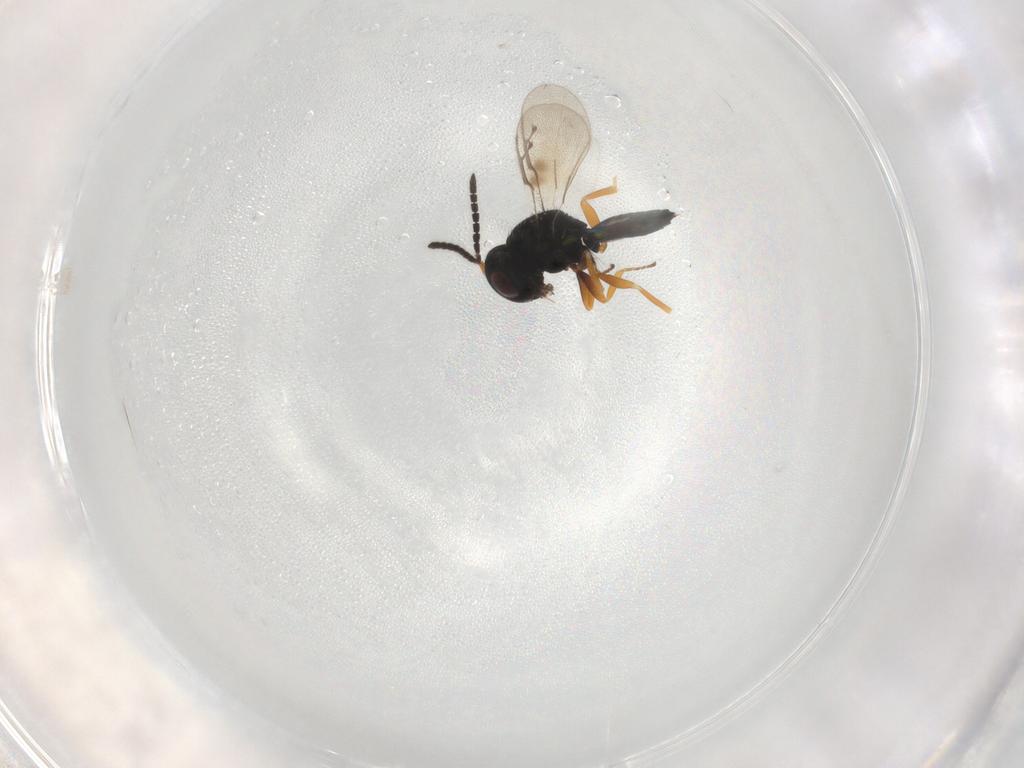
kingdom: Animalia
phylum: Arthropoda
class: Insecta
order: Hymenoptera
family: Pteromalidae
